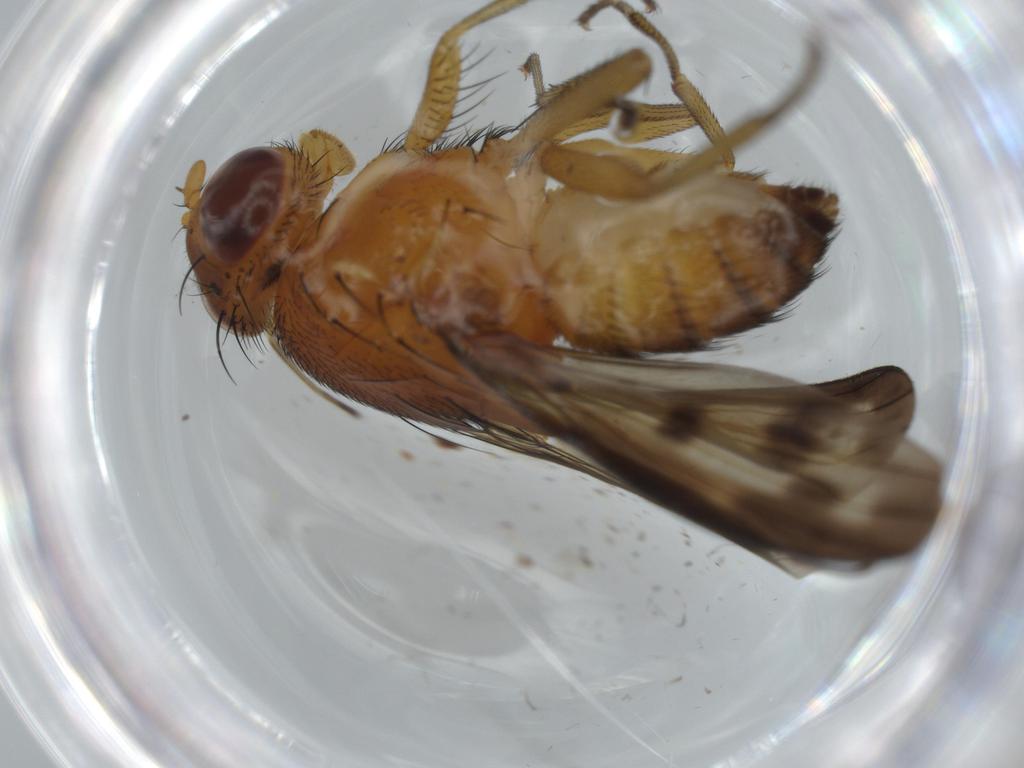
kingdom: Animalia
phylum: Arthropoda
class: Insecta
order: Diptera
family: Drosophilidae
